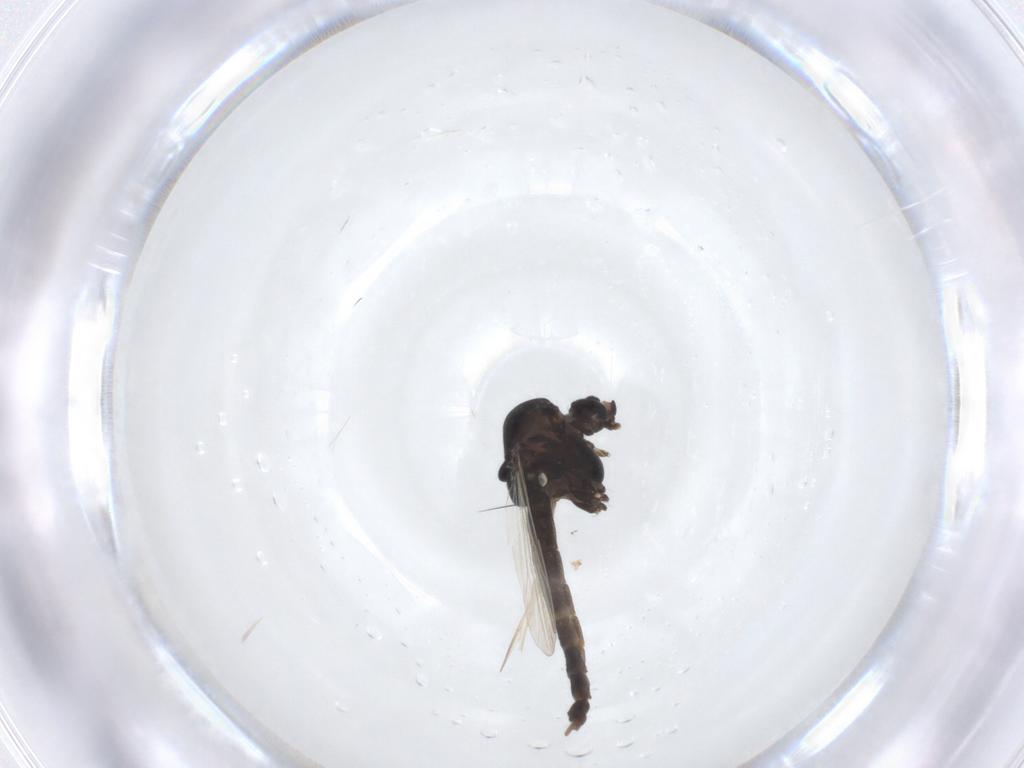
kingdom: Animalia
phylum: Arthropoda
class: Insecta
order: Diptera
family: Chironomidae
